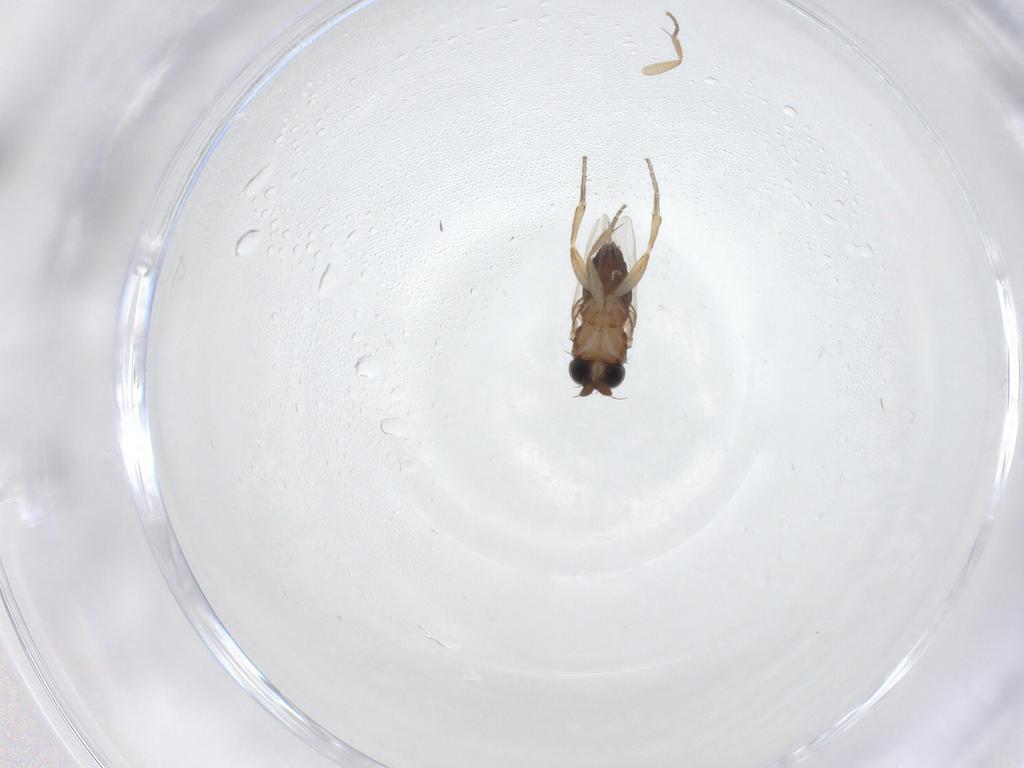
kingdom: Animalia
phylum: Arthropoda
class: Insecta
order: Diptera
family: Phoridae
